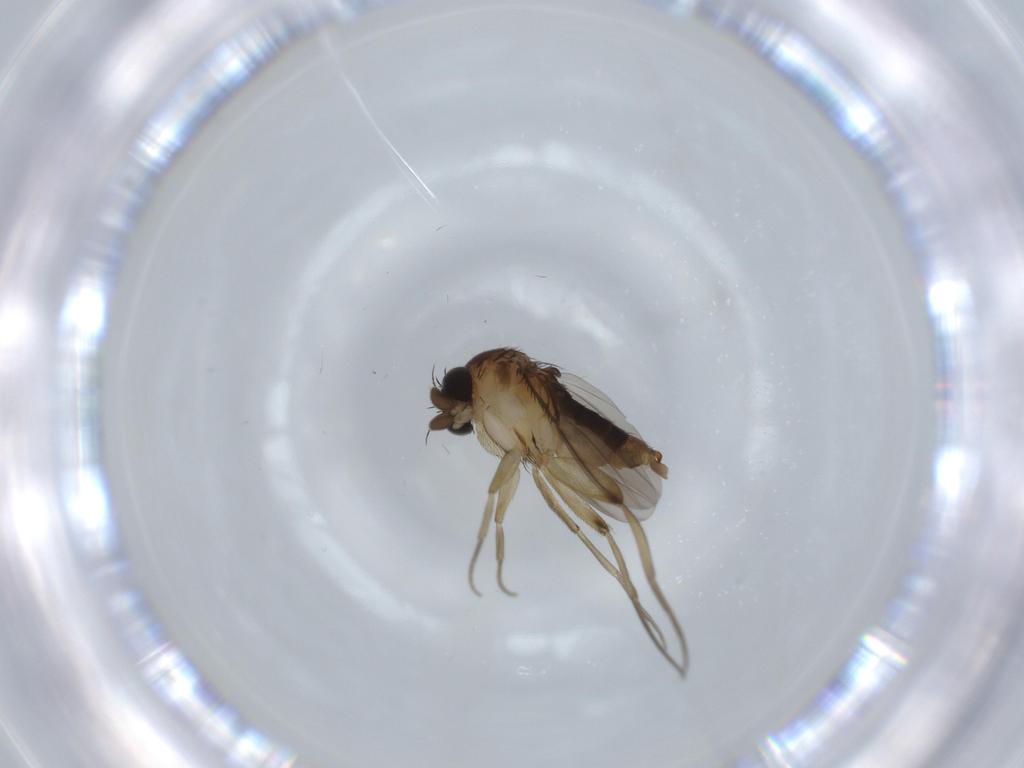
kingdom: Animalia
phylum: Arthropoda
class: Insecta
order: Diptera
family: Phoridae
